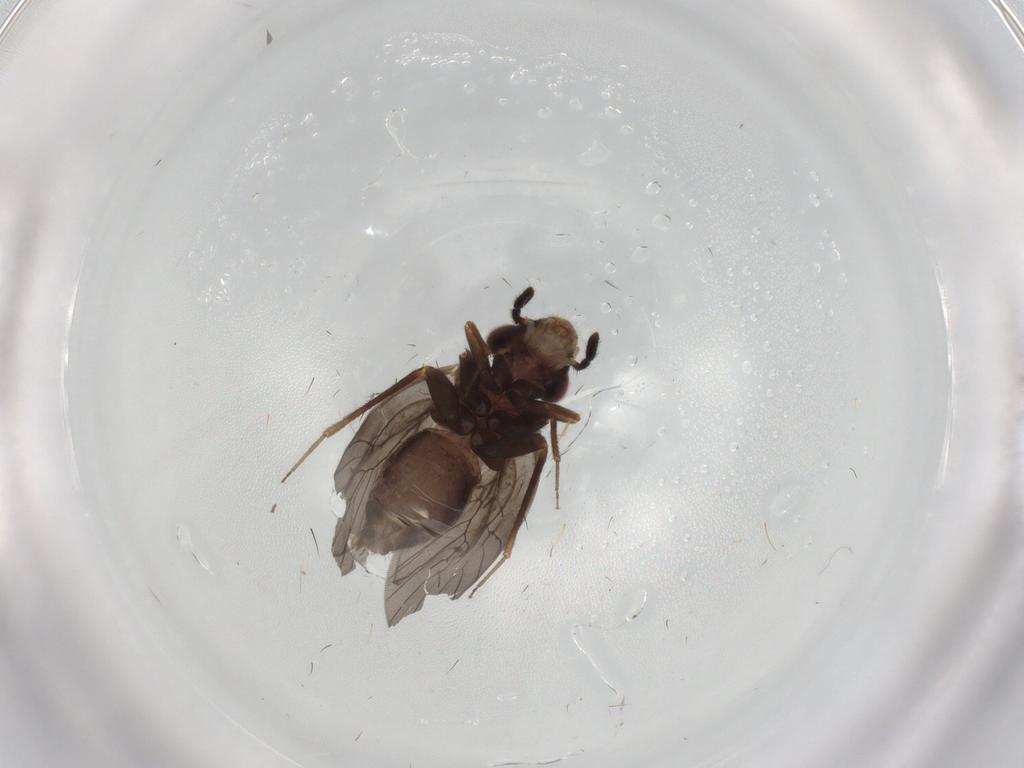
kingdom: Animalia
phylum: Arthropoda
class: Insecta
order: Psocodea
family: Lepidopsocidae
